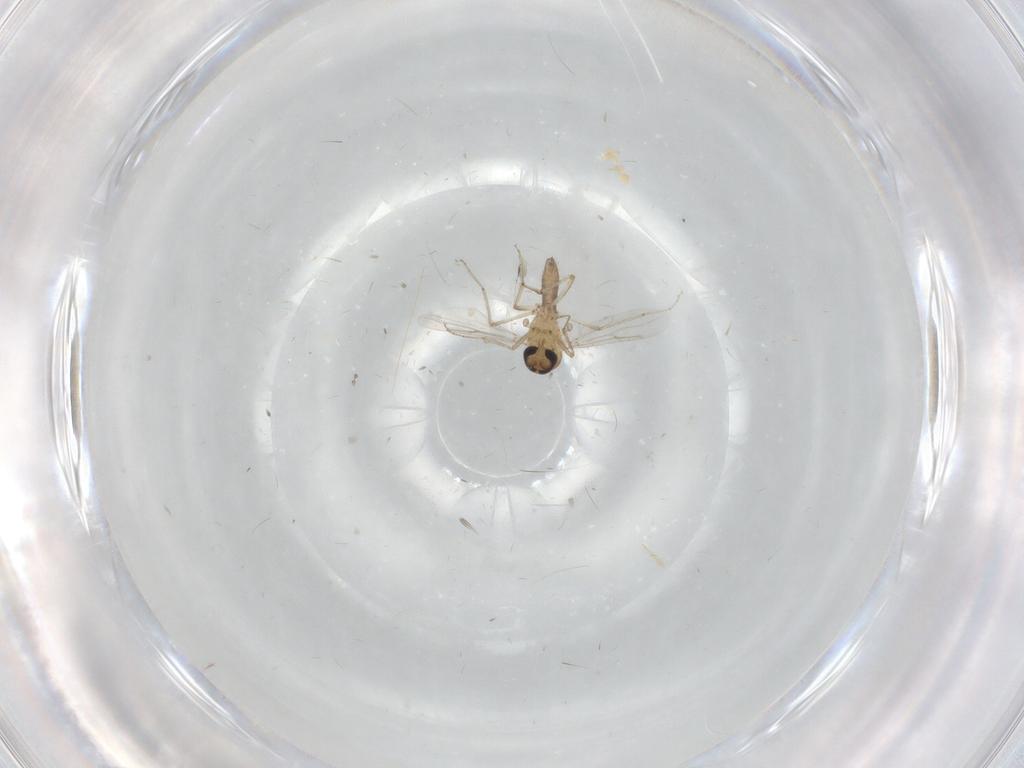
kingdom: Animalia
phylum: Arthropoda
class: Insecta
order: Diptera
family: Ceratopogonidae
